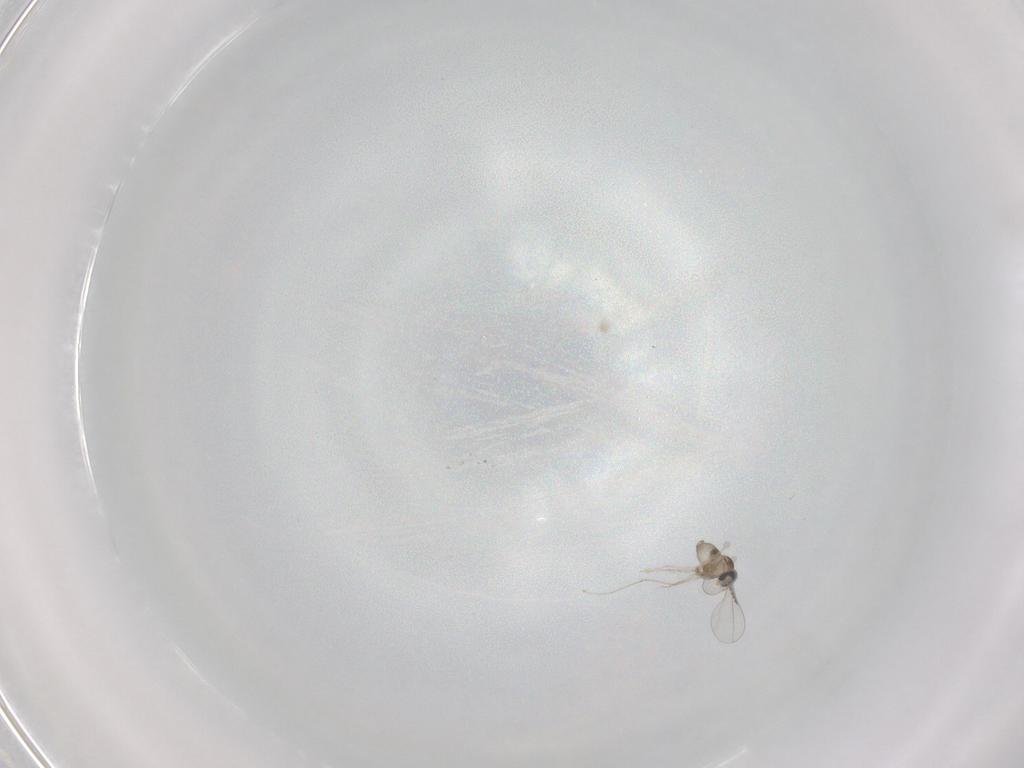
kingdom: Animalia
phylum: Arthropoda
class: Insecta
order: Diptera
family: Cecidomyiidae
